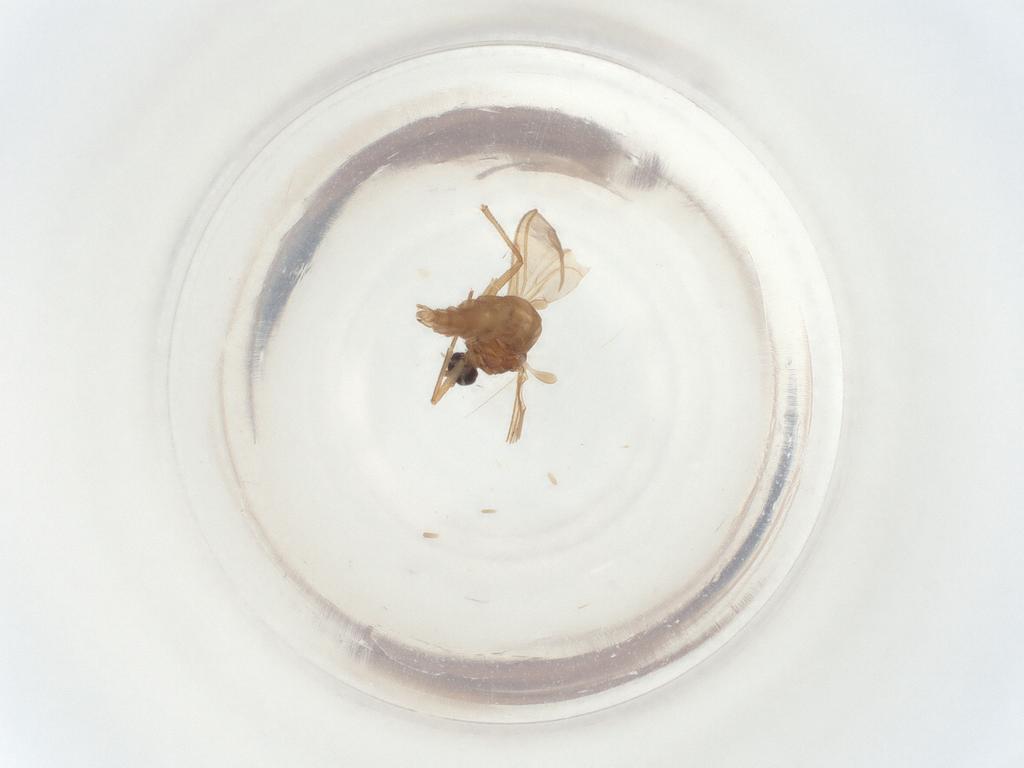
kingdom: Animalia
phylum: Arthropoda
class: Insecta
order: Diptera
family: Sciaridae
